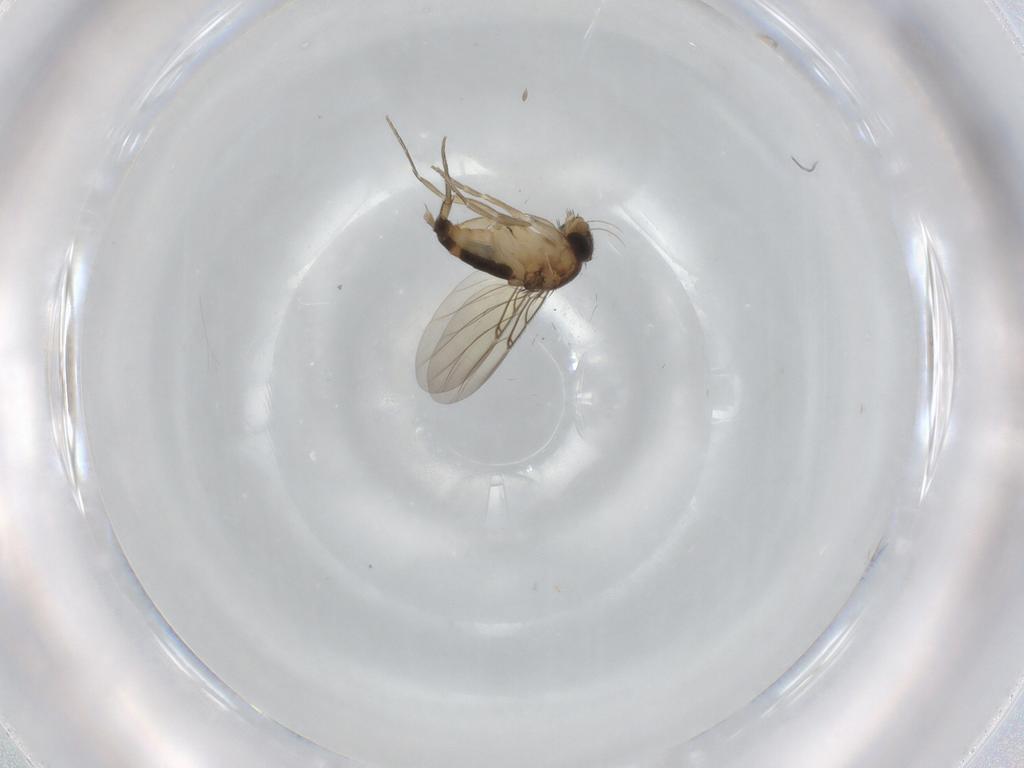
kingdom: Animalia
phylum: Arthropoda
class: Insecta
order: Diptera
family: Phoridae
